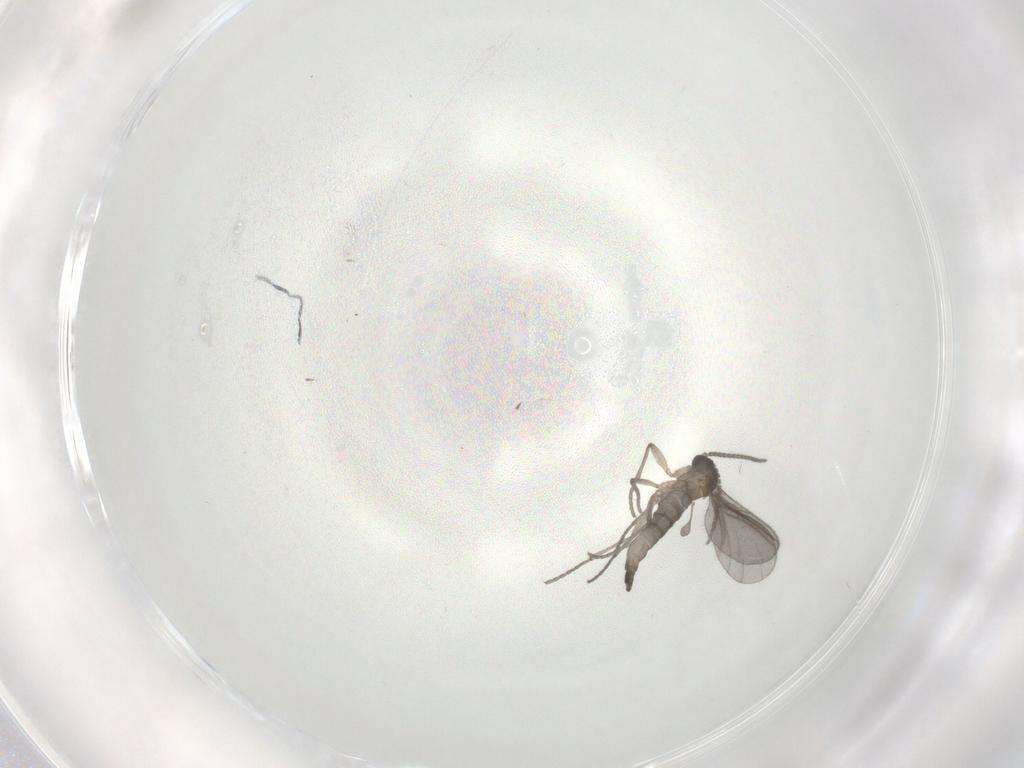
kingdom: Animalia
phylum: Arthropoda
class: Insecta
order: Diptera
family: Sciaridae
